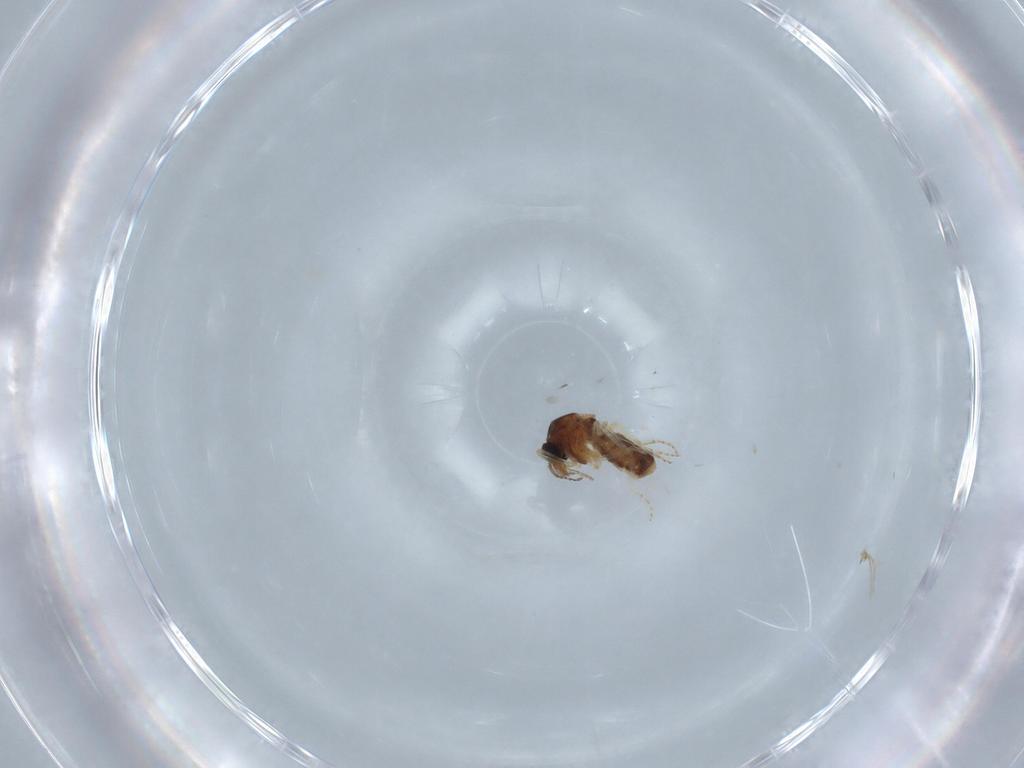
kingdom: Animalia
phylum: Arthropoda
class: Insecta
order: Diptera
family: Ceratopogonidae
